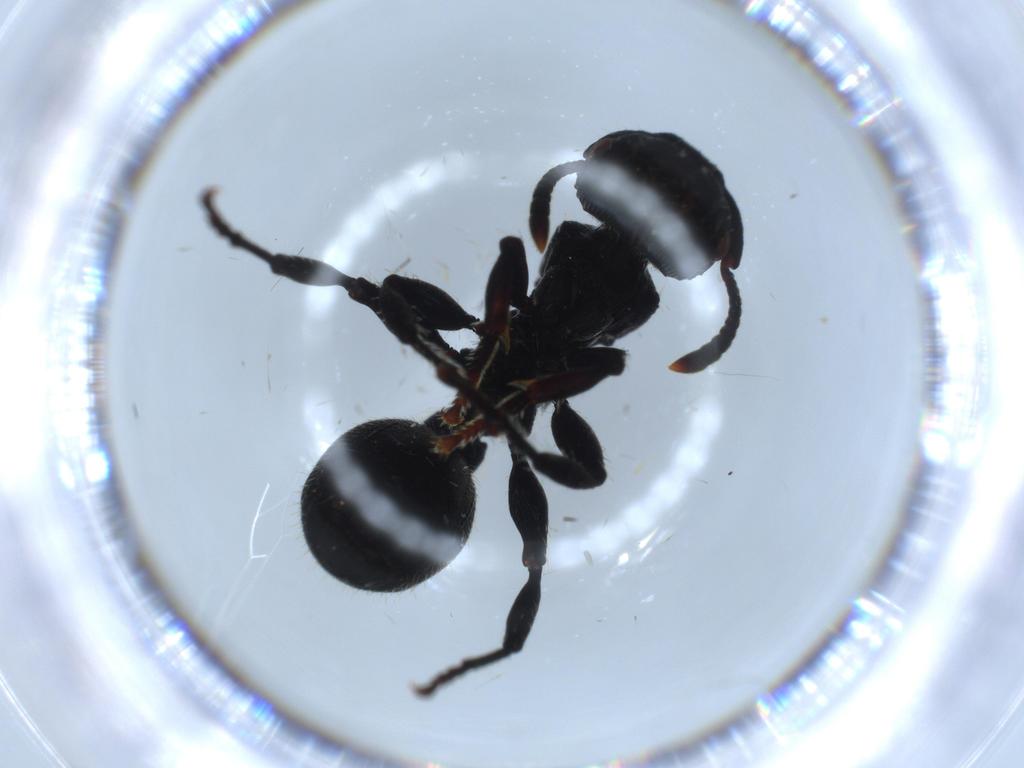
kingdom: Animalia
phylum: Arthropoda
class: Insecta
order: Hymenoptera
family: Formicidae
